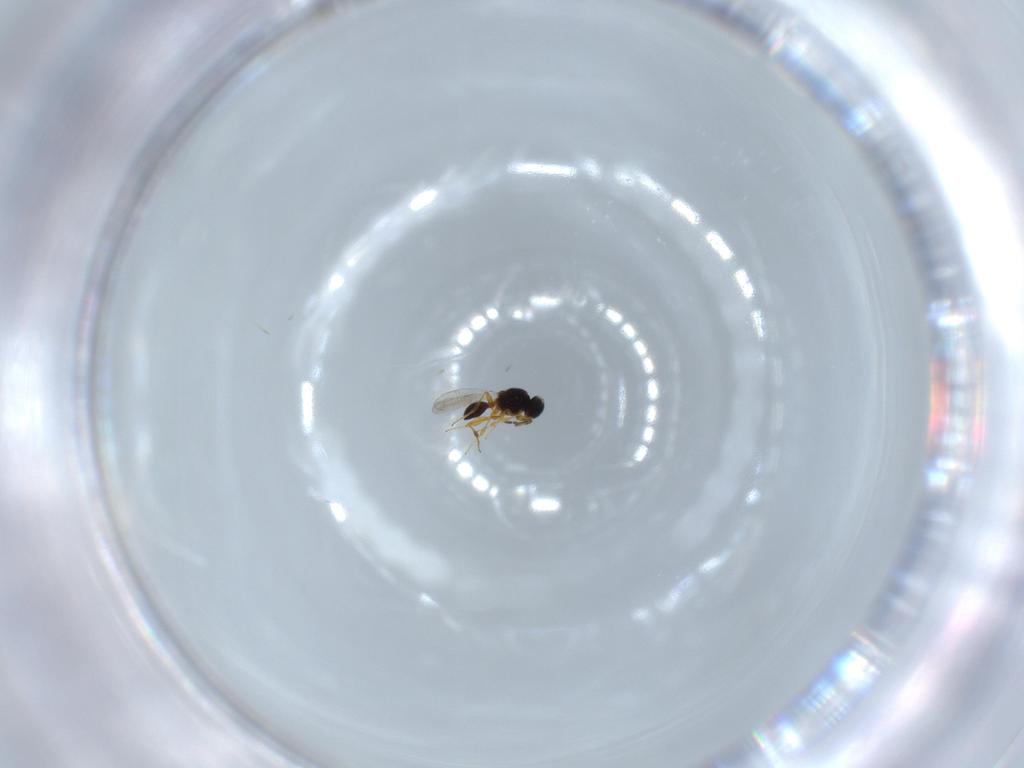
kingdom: Animalia
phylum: Arthropoda
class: Insecta
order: Hymenoptera
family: Platygastridae
